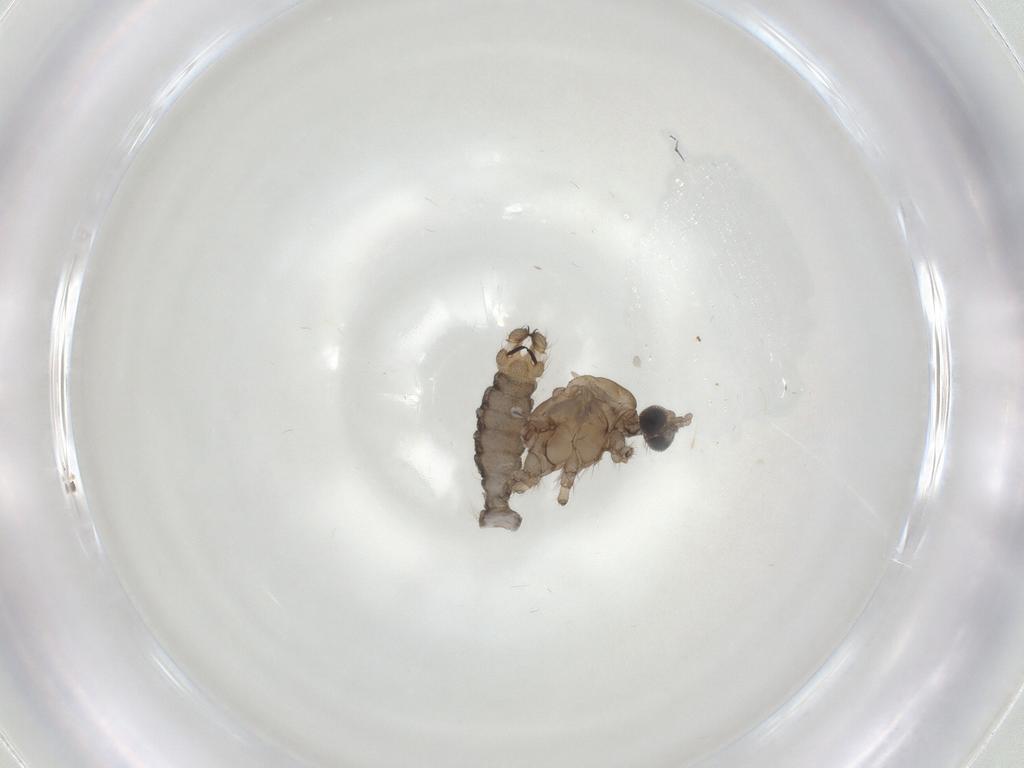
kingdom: Animalia
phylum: Arthropoda
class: Insecta
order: Diptera
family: Limoniidae
